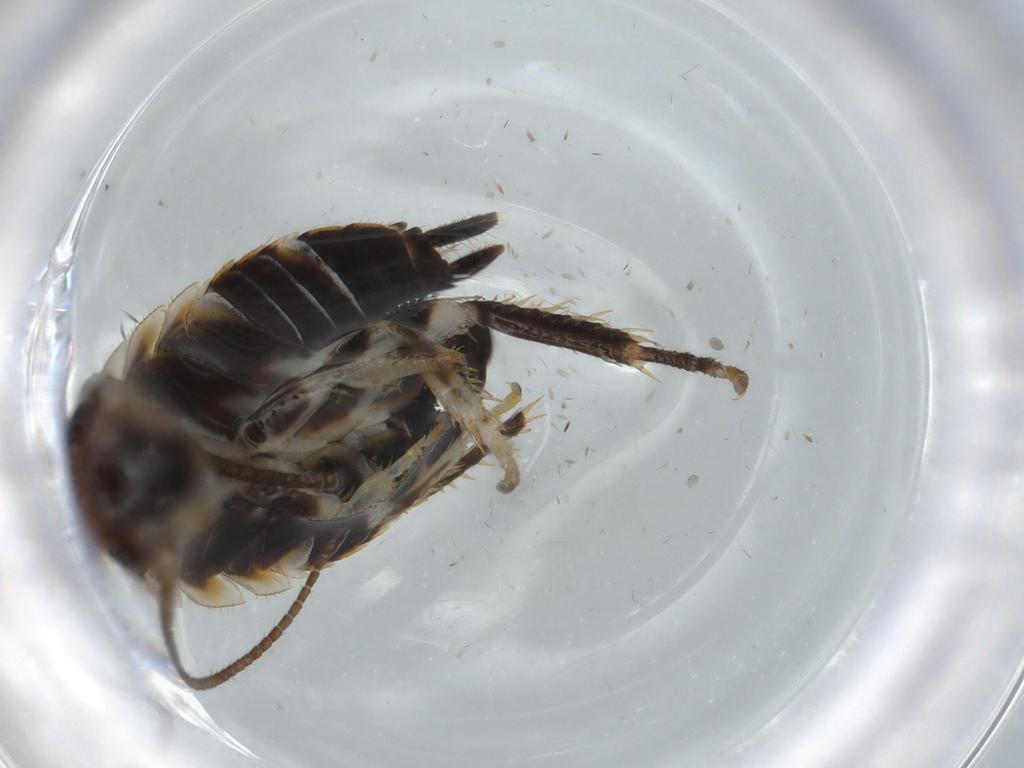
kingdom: Animalia
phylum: Arthropoda
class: Insecta
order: Blattodea
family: Ectobiidae
